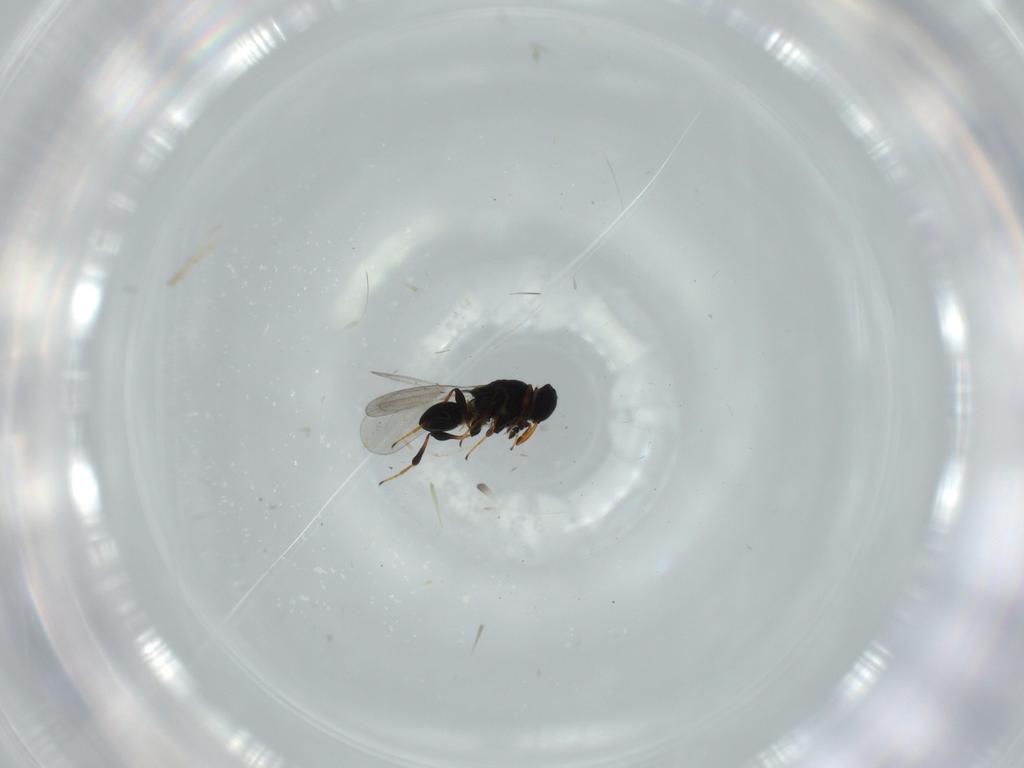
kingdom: Animalia
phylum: Arthropoda
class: Insecta
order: Hymenoptera
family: Platygastridae
